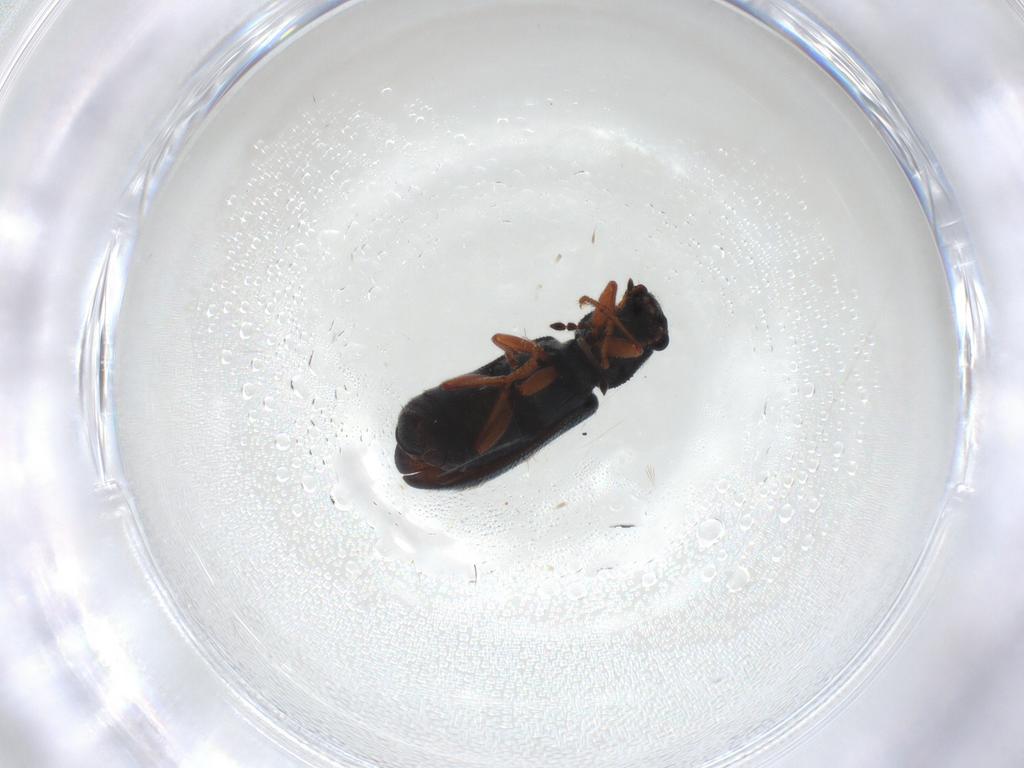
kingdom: Animalia
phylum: Arthropoda
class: Insecta
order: Coleoptera
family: Melyridae
